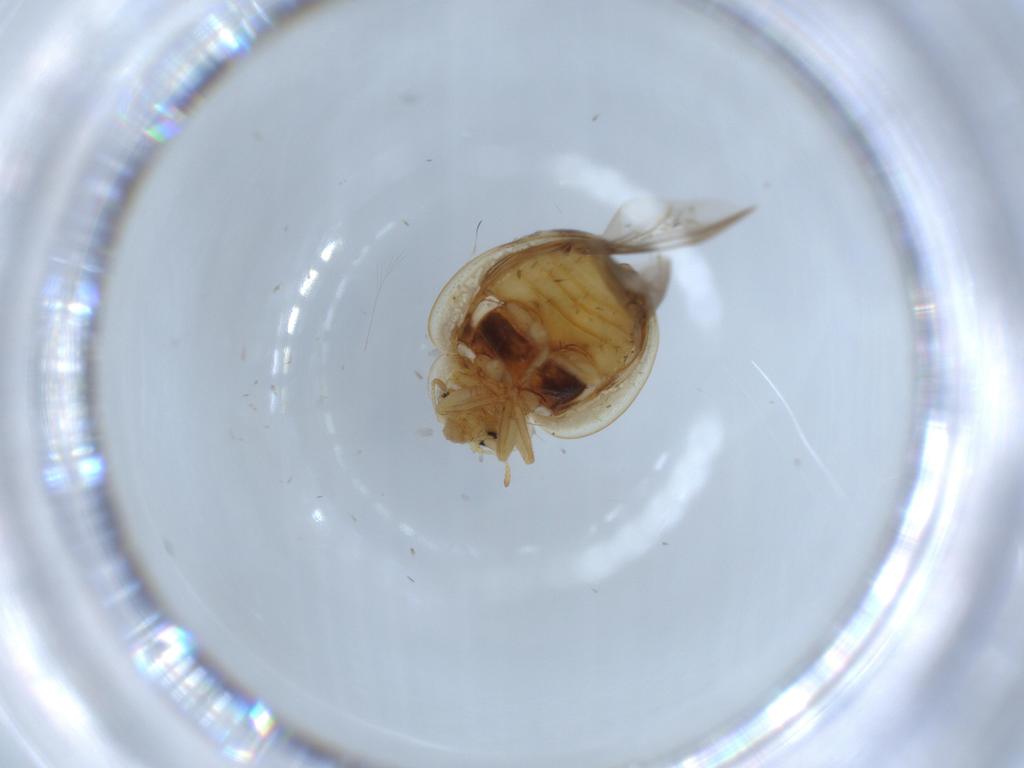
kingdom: Animalia
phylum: Arthropoda
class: Insecta
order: Coleoptera
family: Coccinellidae
